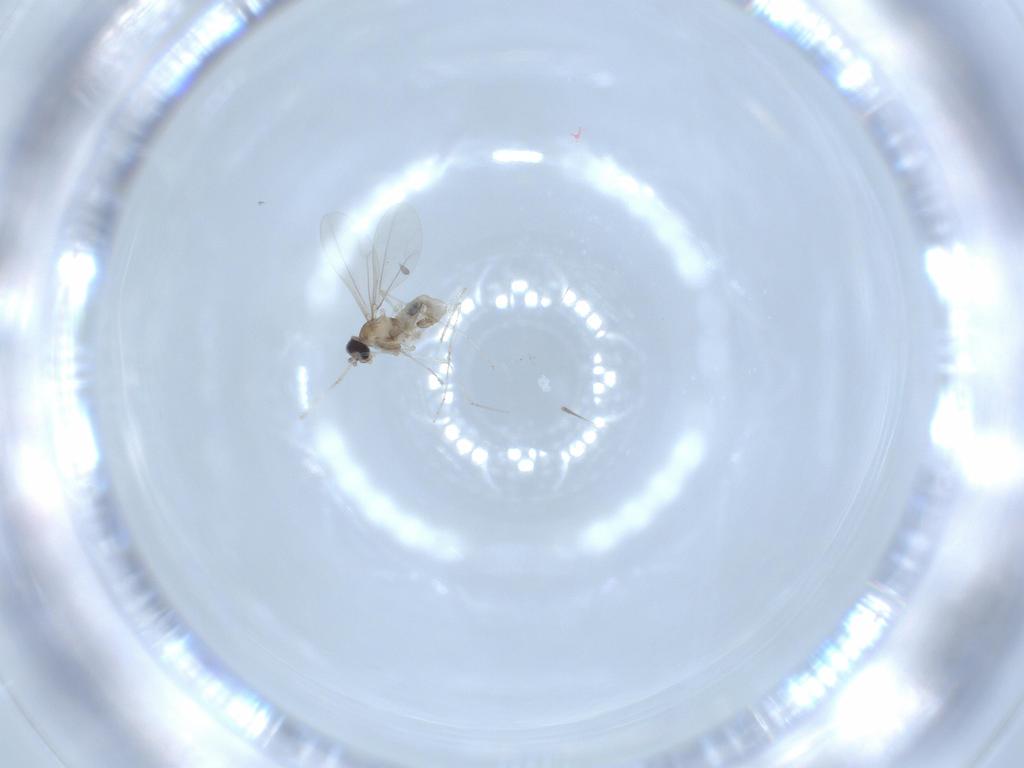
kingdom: Animalia
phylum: Arthropoda
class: Insecta
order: Diptera
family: Cecidomyiidae
